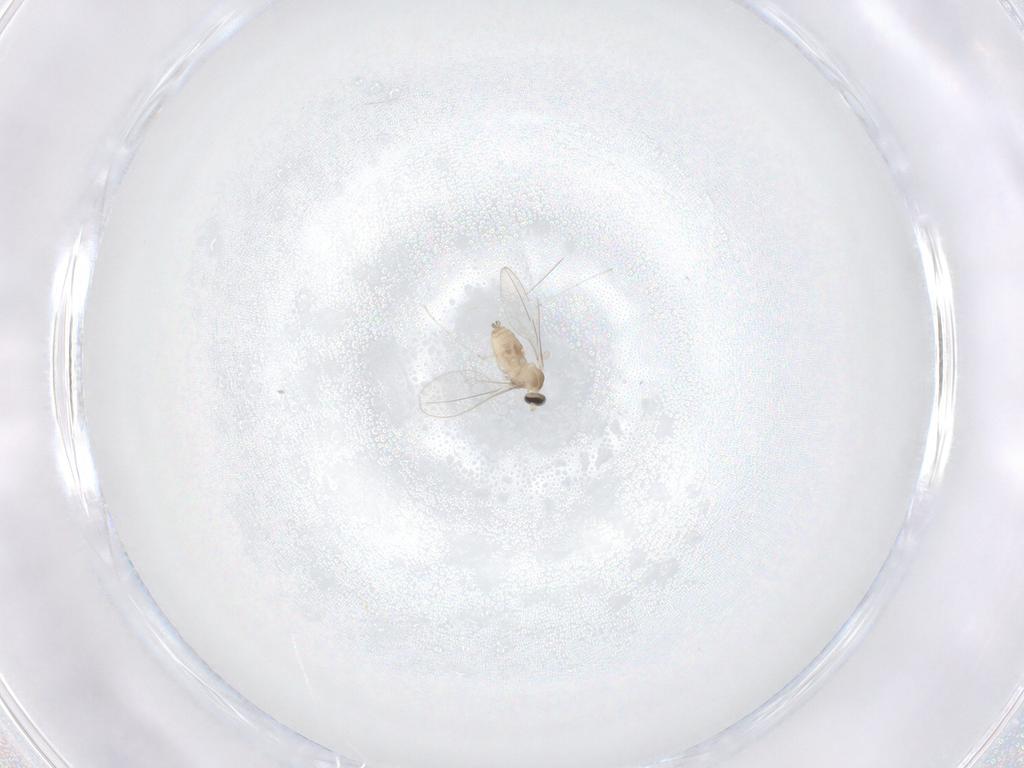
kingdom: Animalia
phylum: Arthropoda
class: Insecta
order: Diptera
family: Cecidomyiidae
